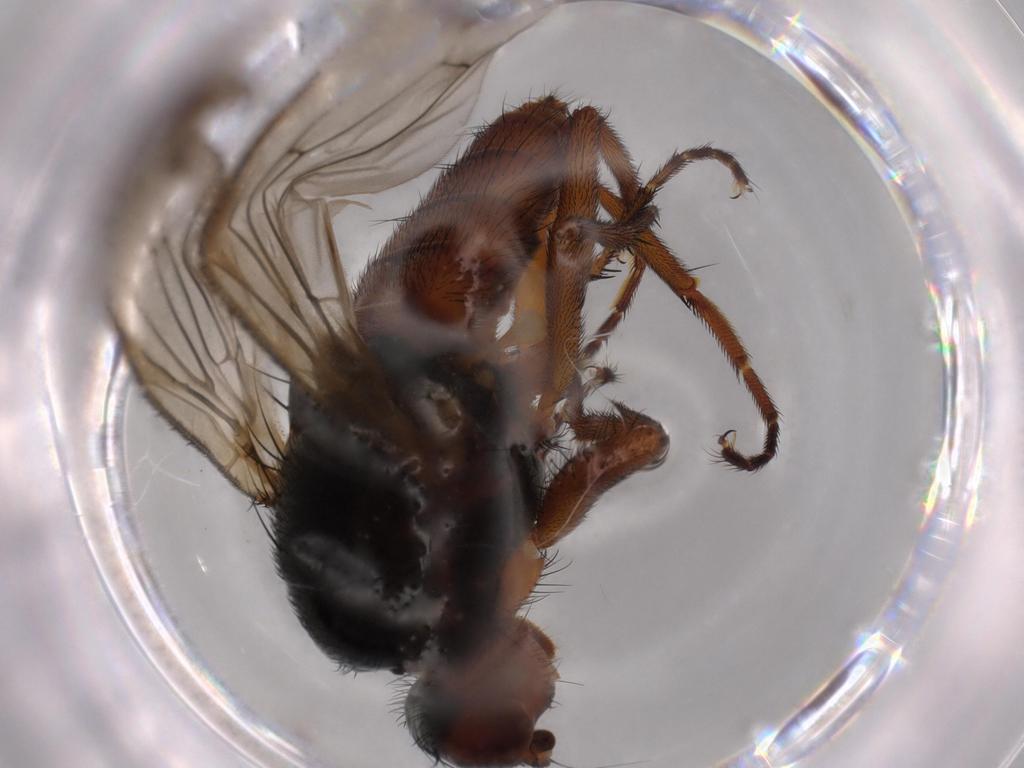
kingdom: Animalia
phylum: Arthropoda
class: Insecta
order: Diptera
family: Heleomyzidae
